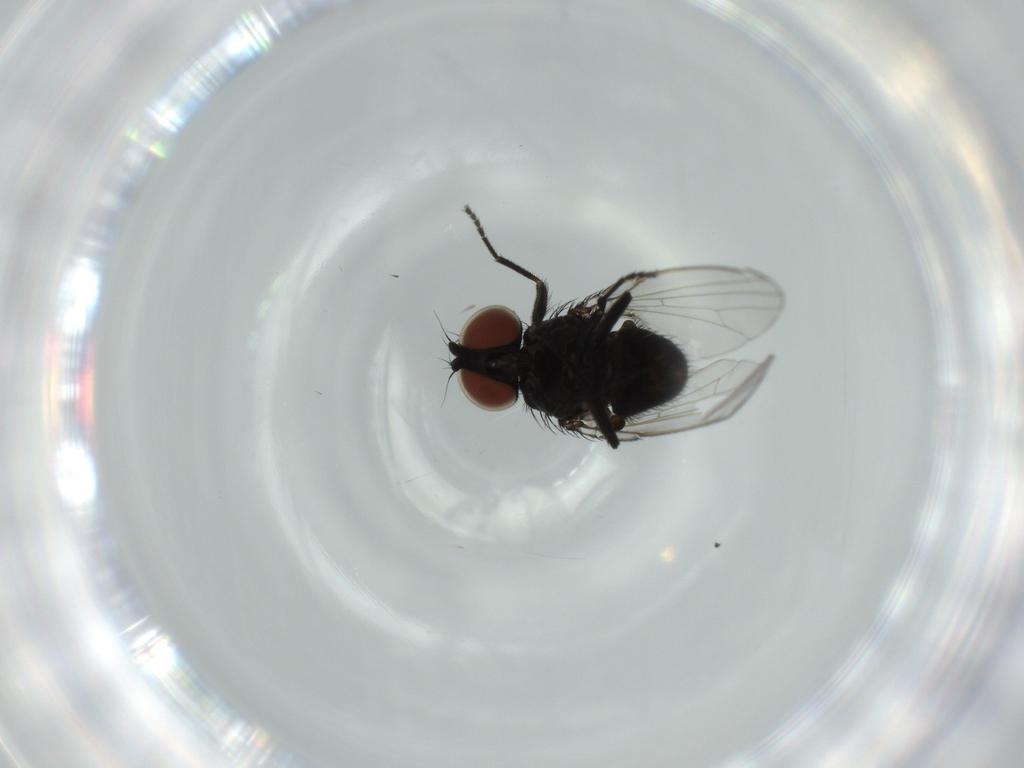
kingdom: Animalia
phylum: Arthropoda
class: Insecta
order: Diptera
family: Milichiidae
